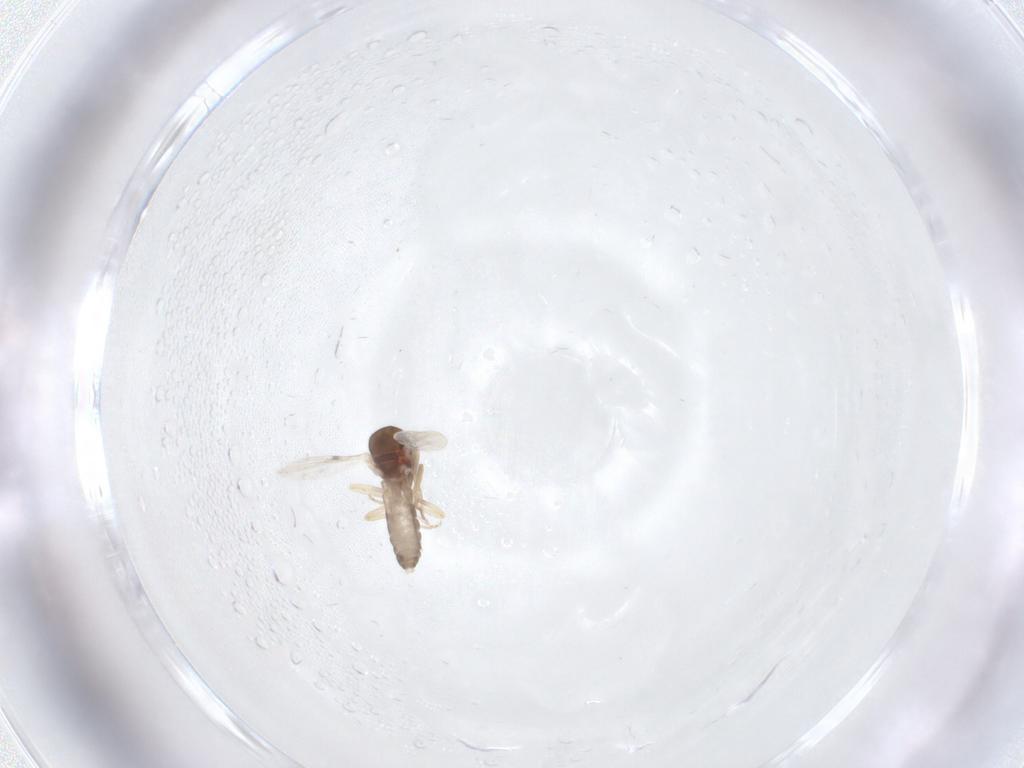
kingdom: Animalia
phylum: Arthropoda
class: Insecta
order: Diptera
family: Ceratopogonidae
